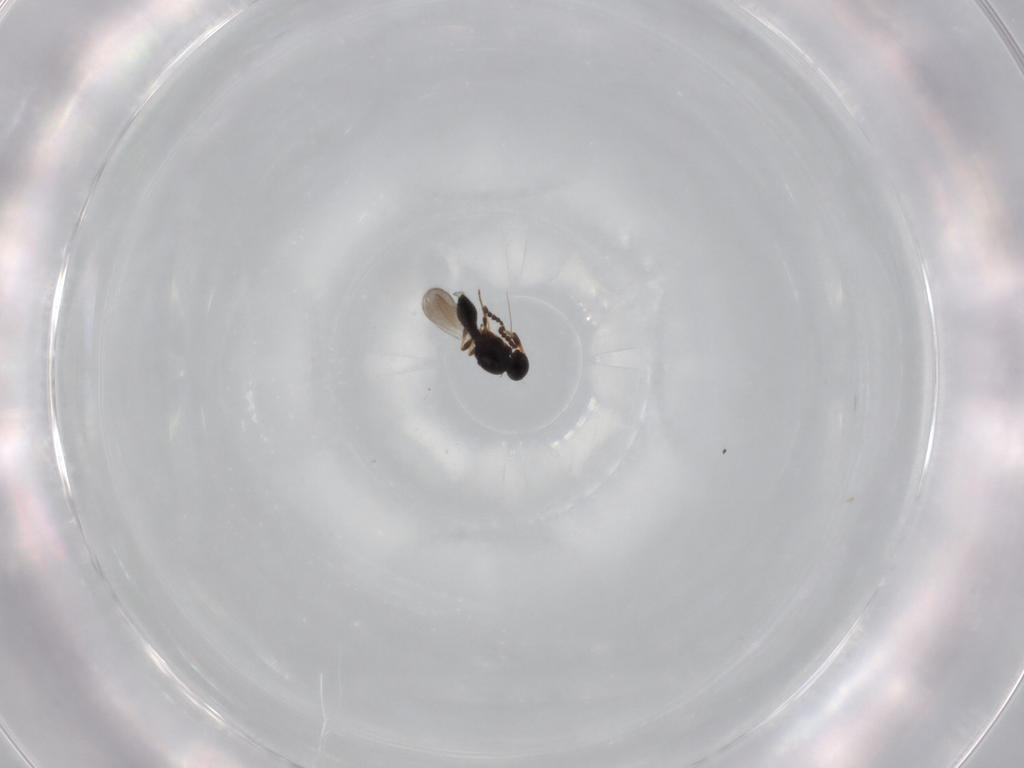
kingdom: Animalia
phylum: Arthropoda
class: Insecta
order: Hymenoptera
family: Platygastridae
